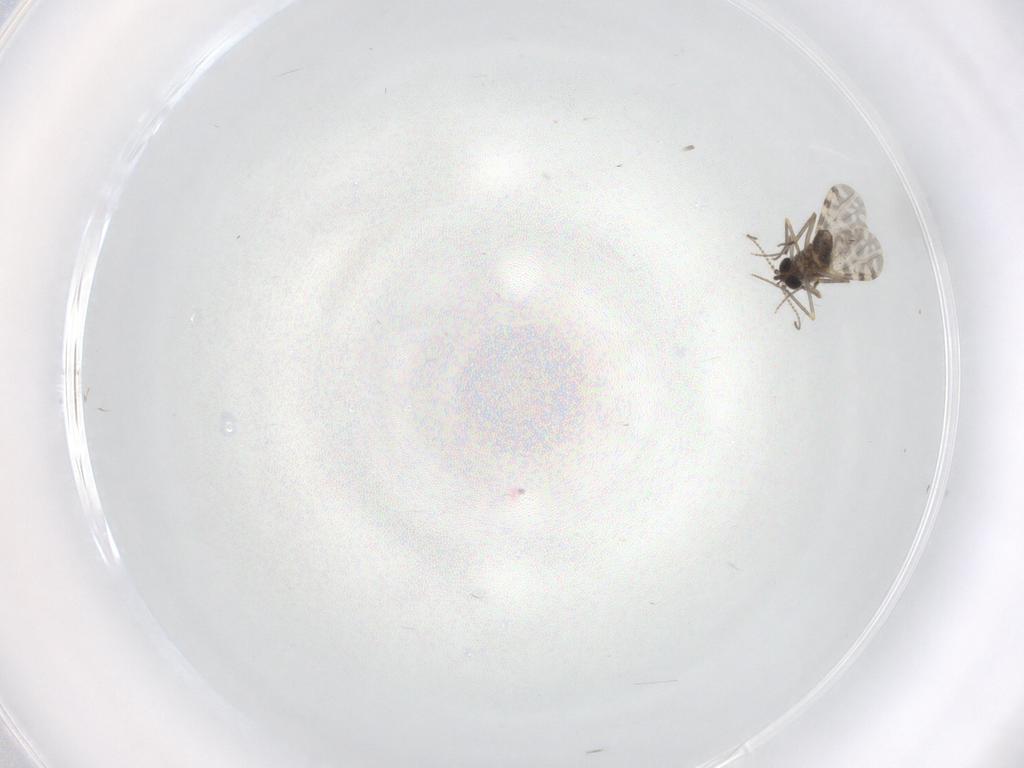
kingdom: Animalia
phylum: Arthropoda
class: Insecta
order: Diptera
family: Ceratopogonidae
